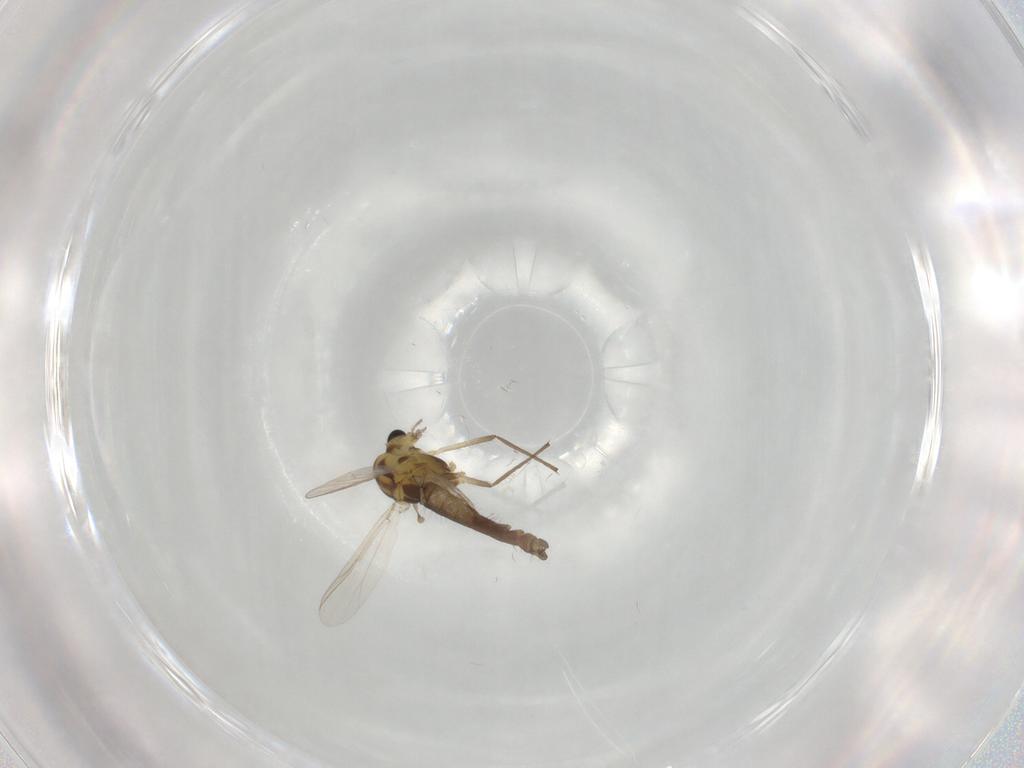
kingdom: Animalia
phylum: Arthropoda
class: Insecta
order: Diptera
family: Chironomidae
